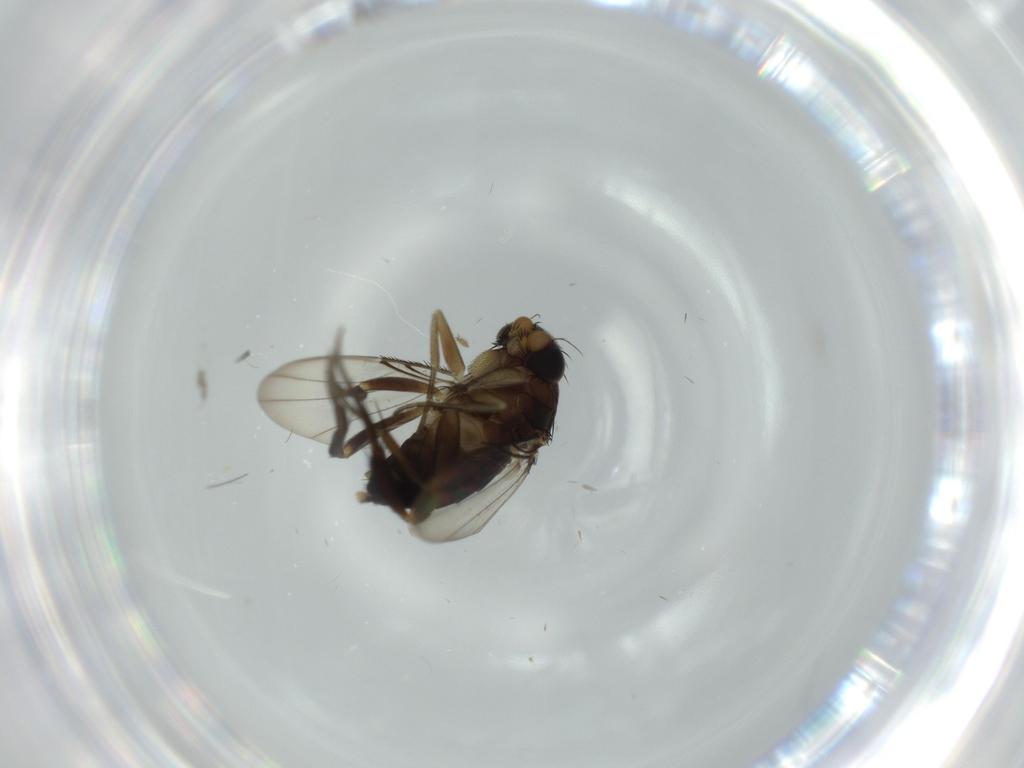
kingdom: Animalia
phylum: Arthropoda
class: Insecta
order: Diptera
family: Phoridae
